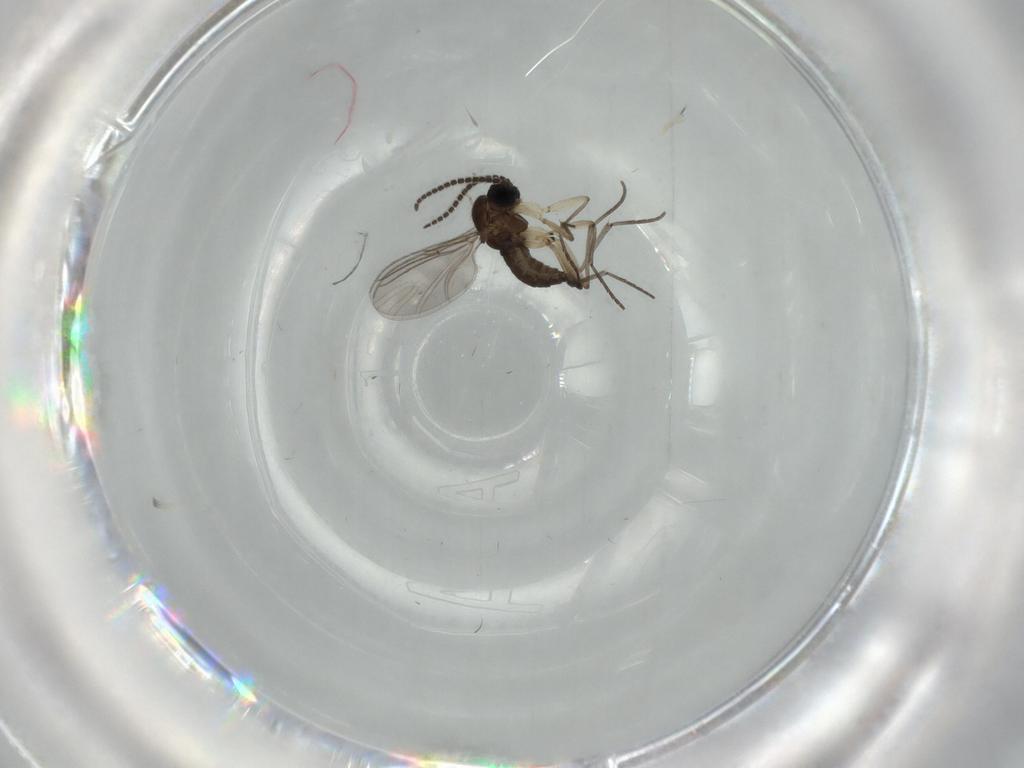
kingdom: Animalia
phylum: Arthropoda
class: Insecta
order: Diptera
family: Sciaridae
